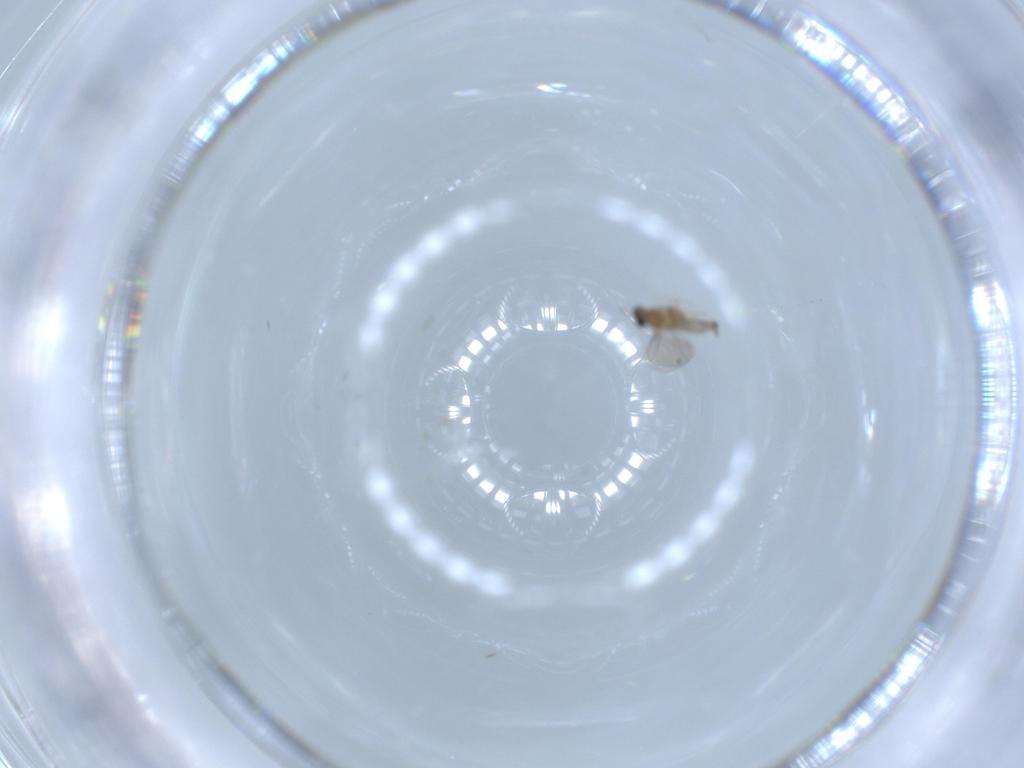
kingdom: Animalia
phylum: Arthropoda
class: Insecta
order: Diptera
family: Cecidomyiidae
